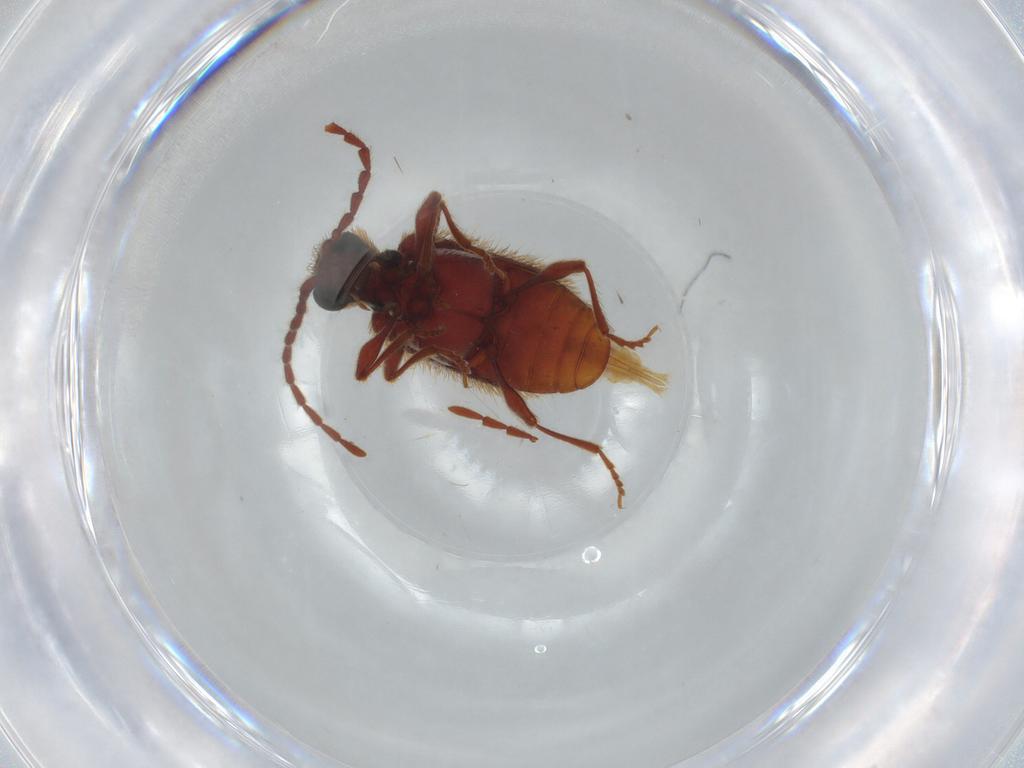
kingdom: Animalia
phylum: Arthropoda
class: Insecta
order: Coleoptera
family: Ptinidae
